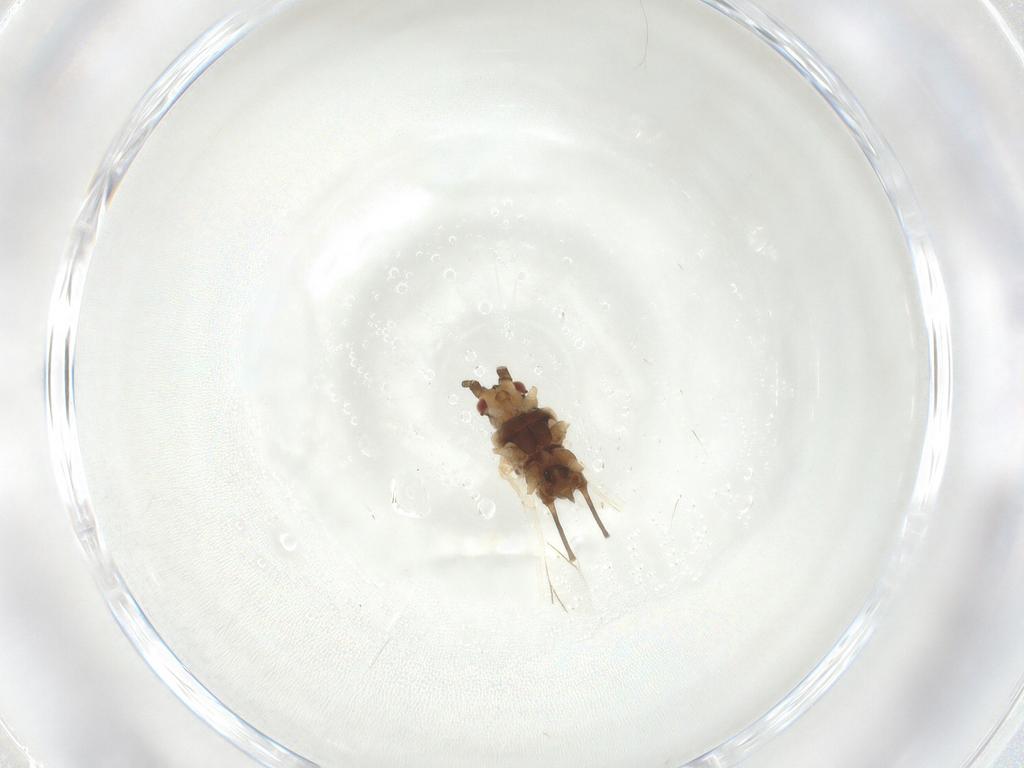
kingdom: Animalia
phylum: Arthropoda
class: Insecta
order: Hemiptera
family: Aphididae
